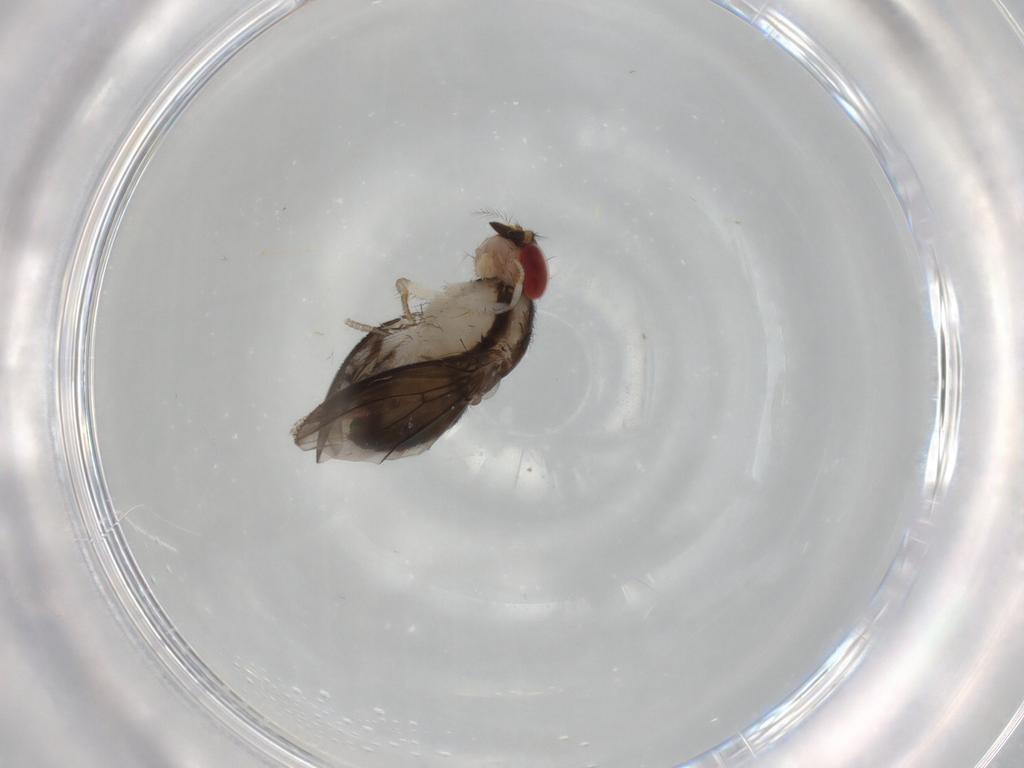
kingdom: Animalia
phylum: Arthropoda
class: Insecta
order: Diptera
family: Drosophilidae
